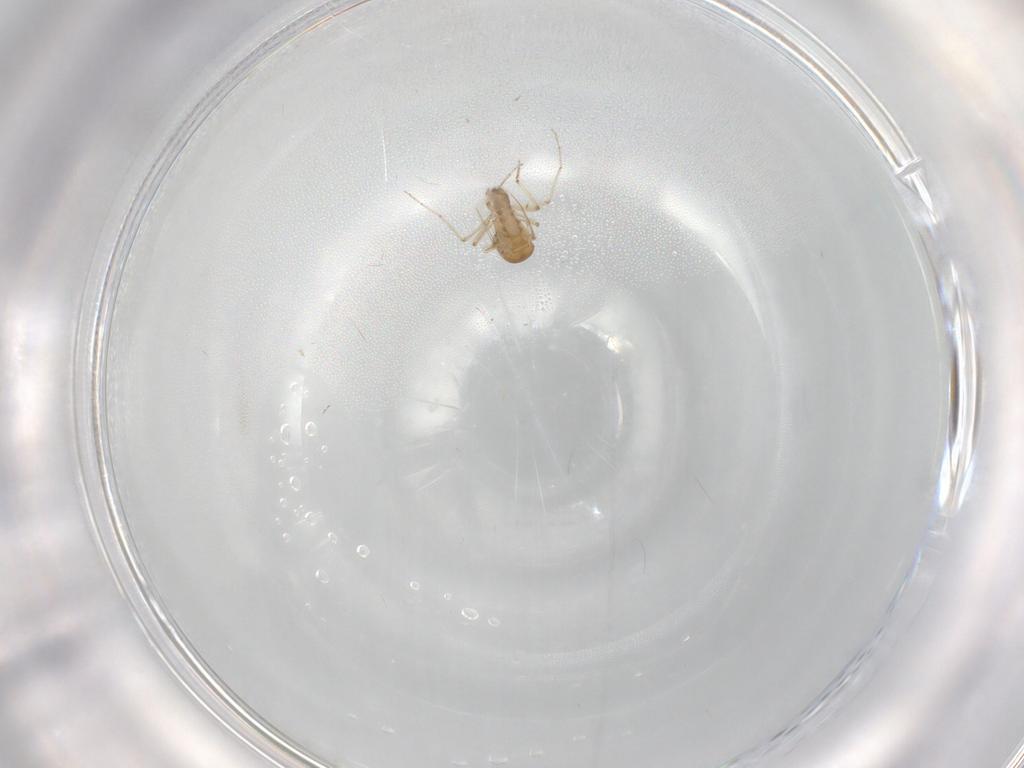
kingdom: Animalia
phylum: Arthropoda
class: Insecta
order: Diptera
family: Ceratopogonidae
